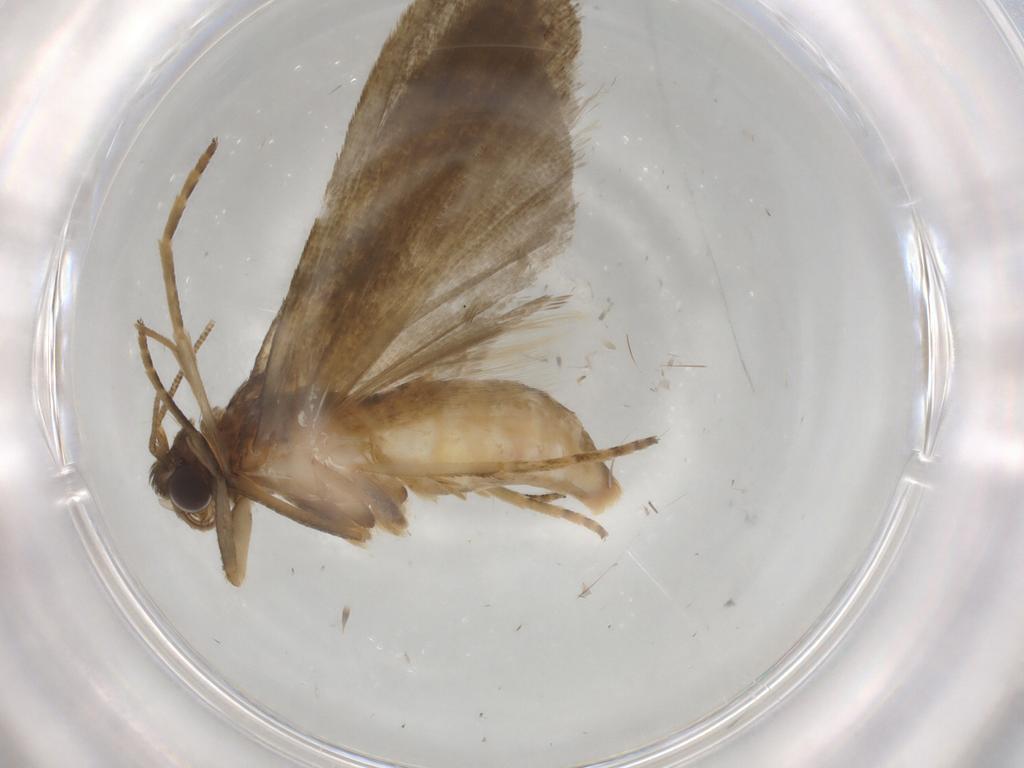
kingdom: Animalia
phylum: Arthropoda
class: Insecta
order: Lepidoptera
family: Noctuidae
